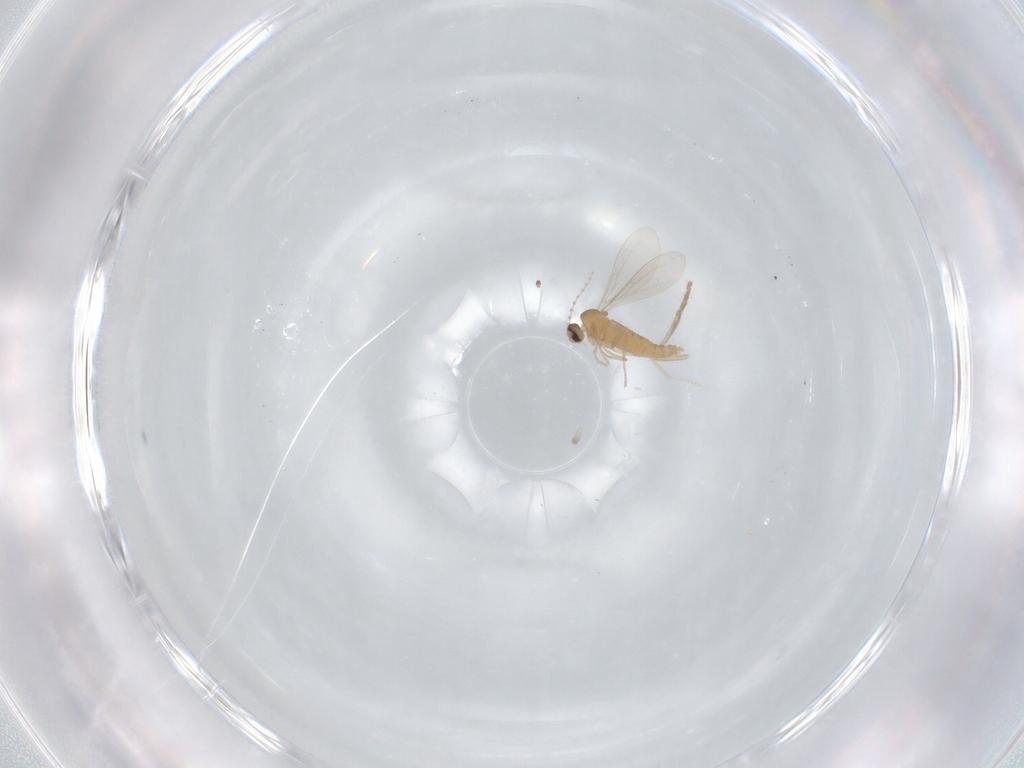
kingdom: Animalia
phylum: Arthropoda
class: Insecta
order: Diptera
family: Cecidomyiidae
